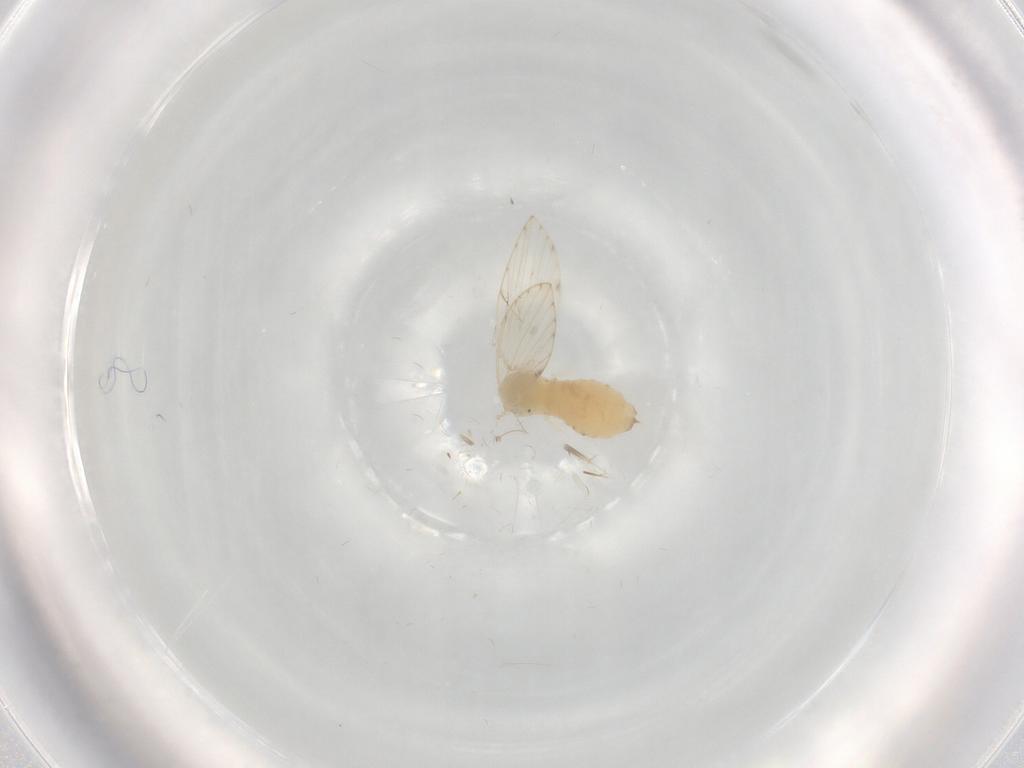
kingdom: Animalia
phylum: Arthropoda
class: Insecta
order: Diptera
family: Psychodidae
